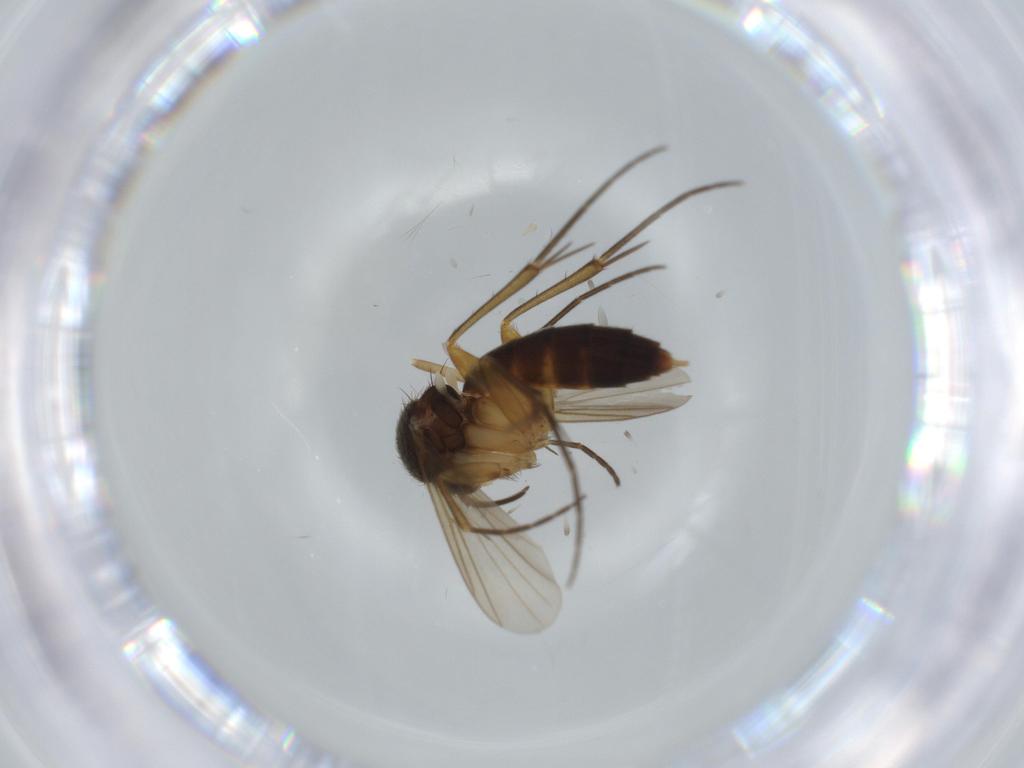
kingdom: Animalia
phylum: Arthropoda
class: Insecta
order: Diptera
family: Chironomidae
